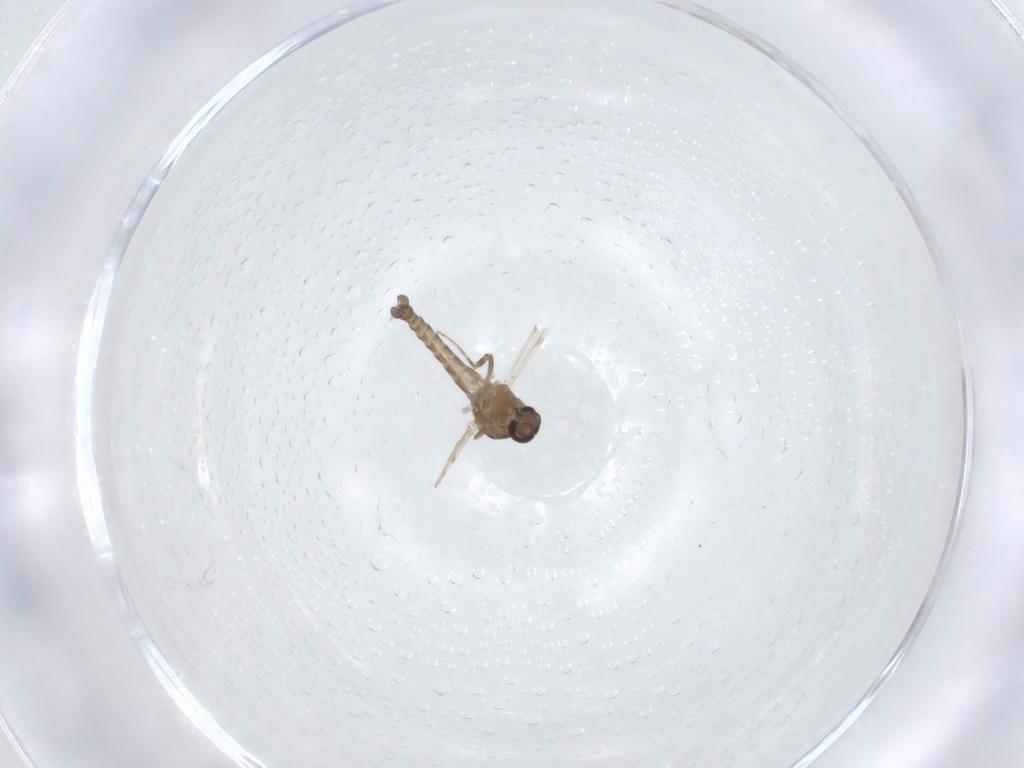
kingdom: Animalia
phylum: Arthropoda
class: Insecta
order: Diptera
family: Ceratopogonidae
